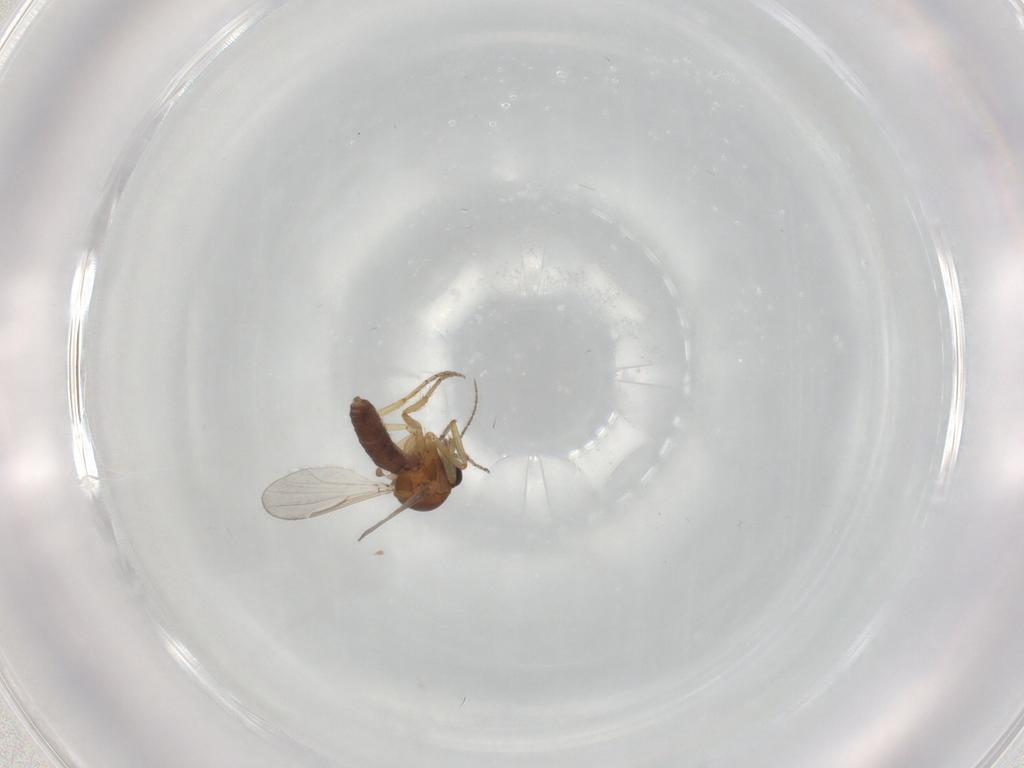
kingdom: Animalia
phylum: Arthropoda
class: Insecta
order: Diptera
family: Ceratopogonidae
